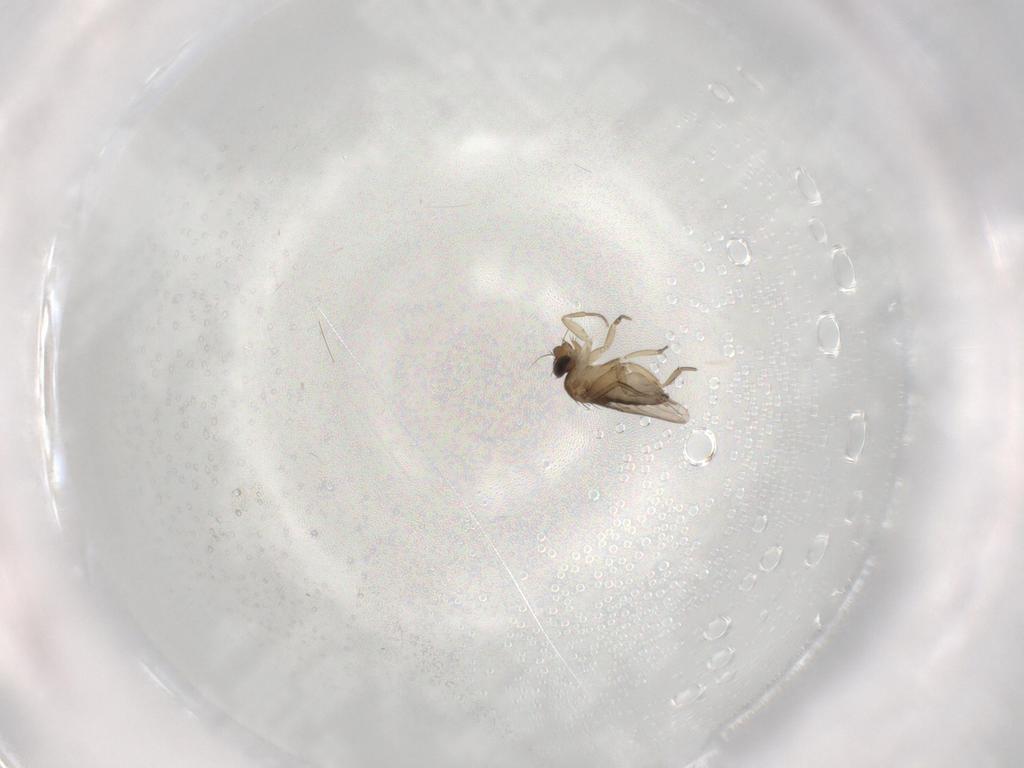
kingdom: Animalia
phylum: Arthropoda
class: Insecta
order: Diptera
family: Phoridae
